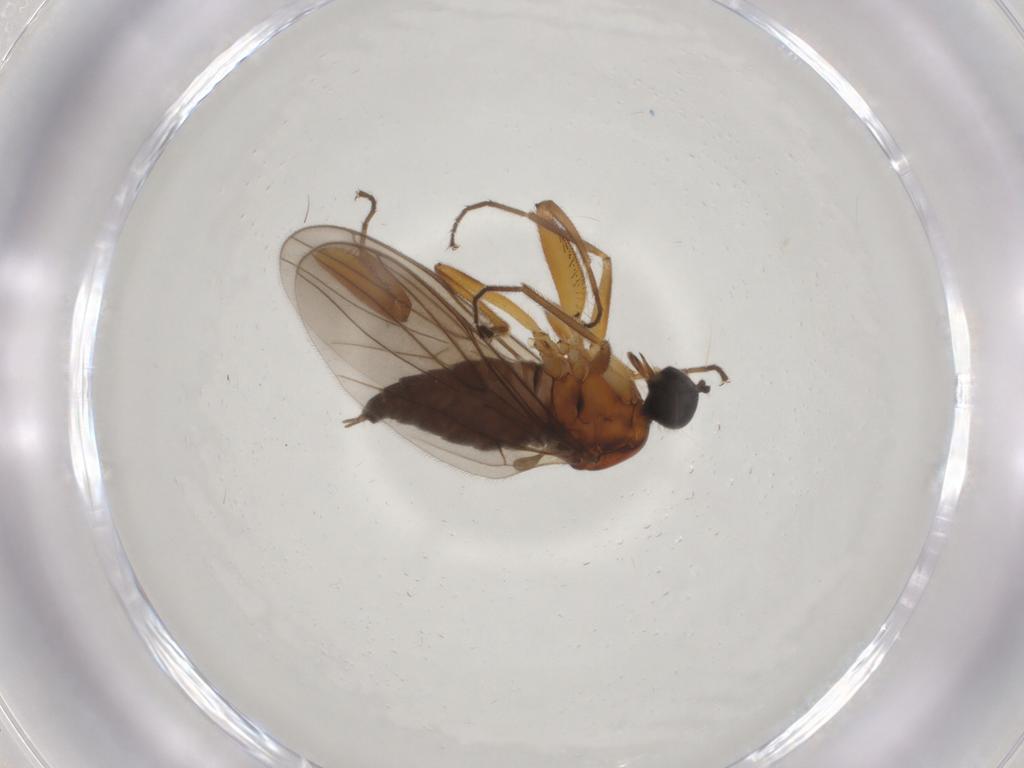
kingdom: Animalia
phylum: Arthropoda
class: Insecta
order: Diptera
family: Hybotidae
